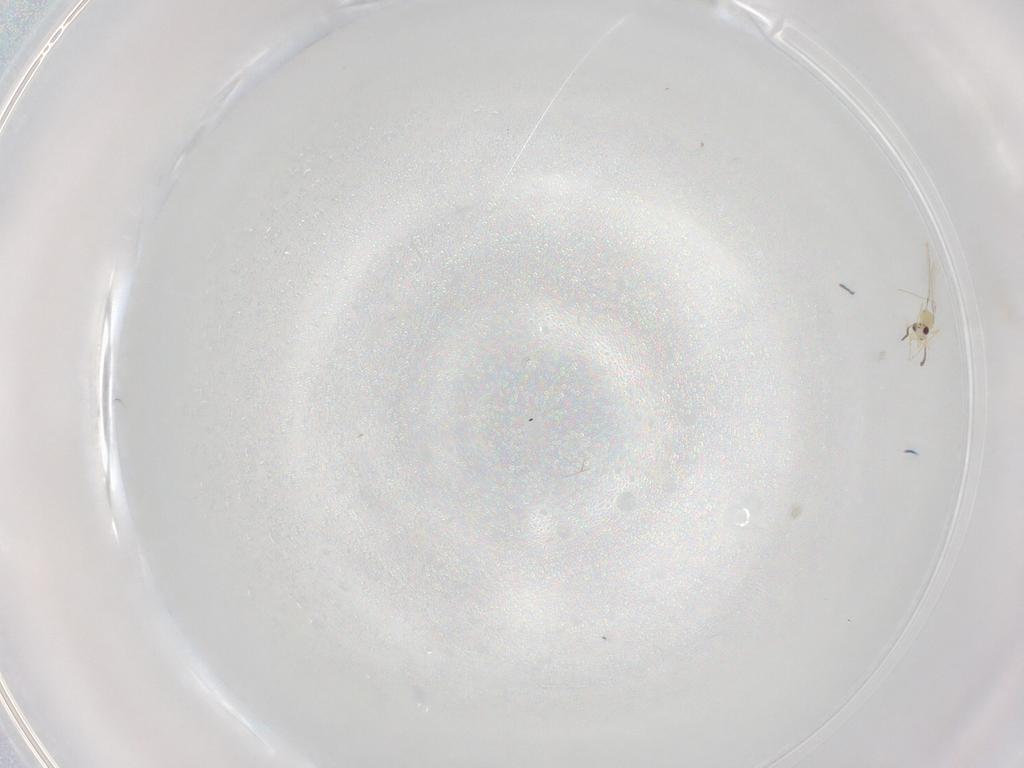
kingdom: Animalia
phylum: Arthropoda
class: Insecta
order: Hymenoptera
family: Mymaridae
